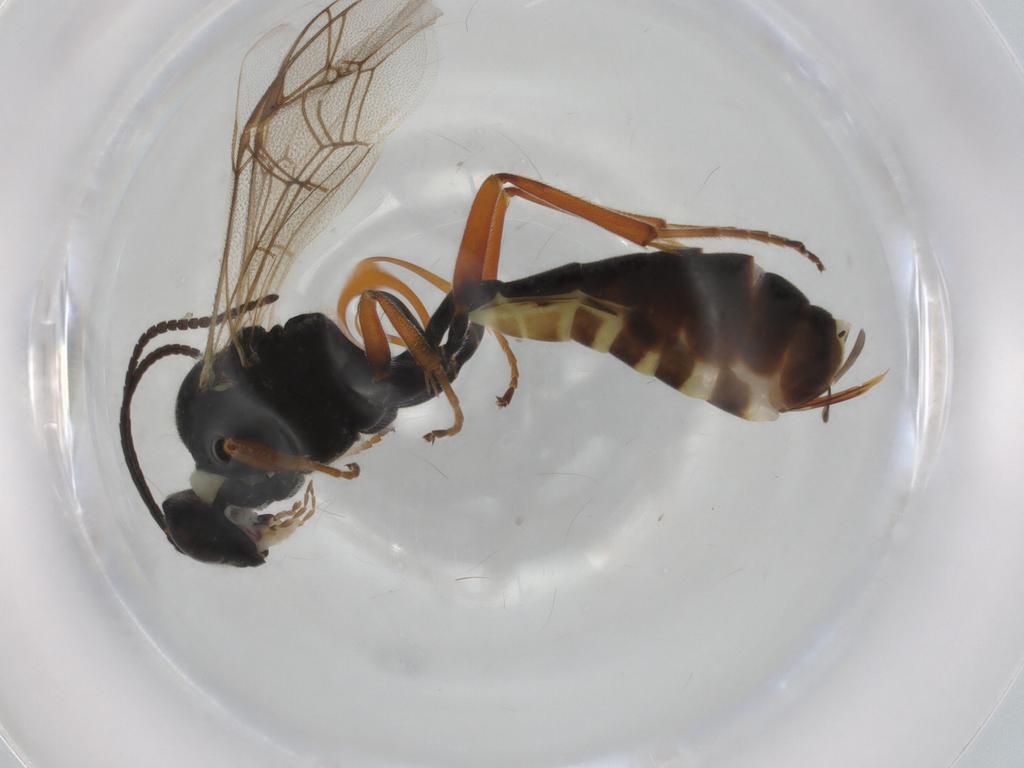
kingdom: Animalia
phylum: Arthropoda
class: Insecta
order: Hymenoptera
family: Ichneumonidae
